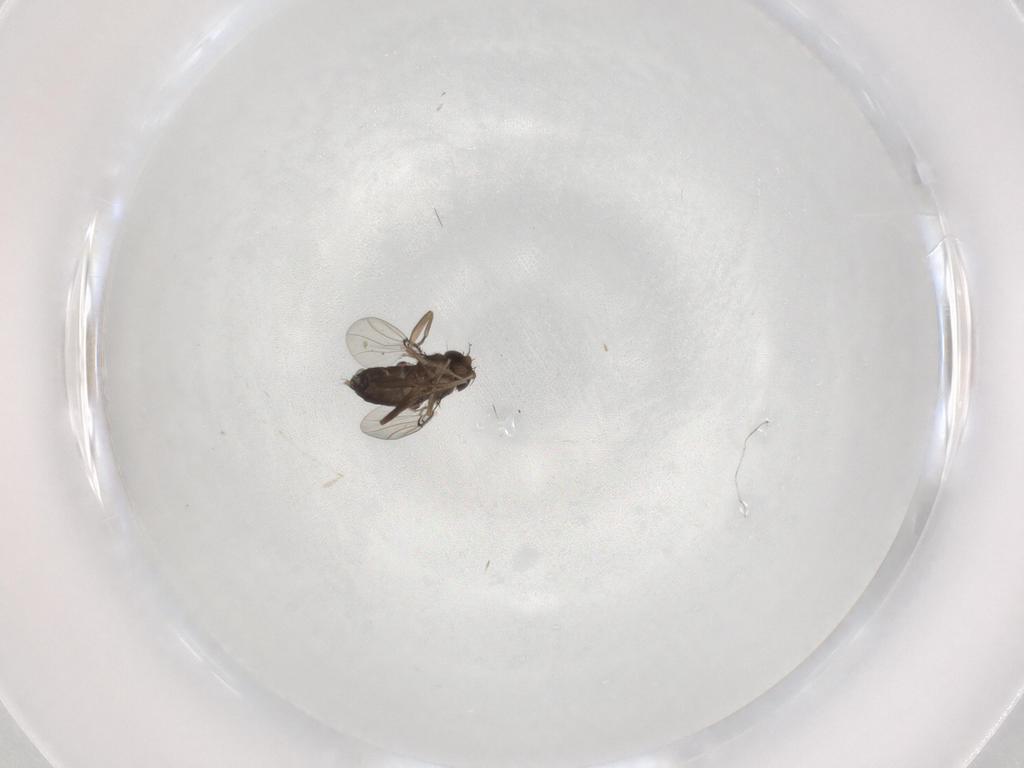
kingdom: Animalia
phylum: Arthropoda
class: Insecta
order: Diptera
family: Phoridae
